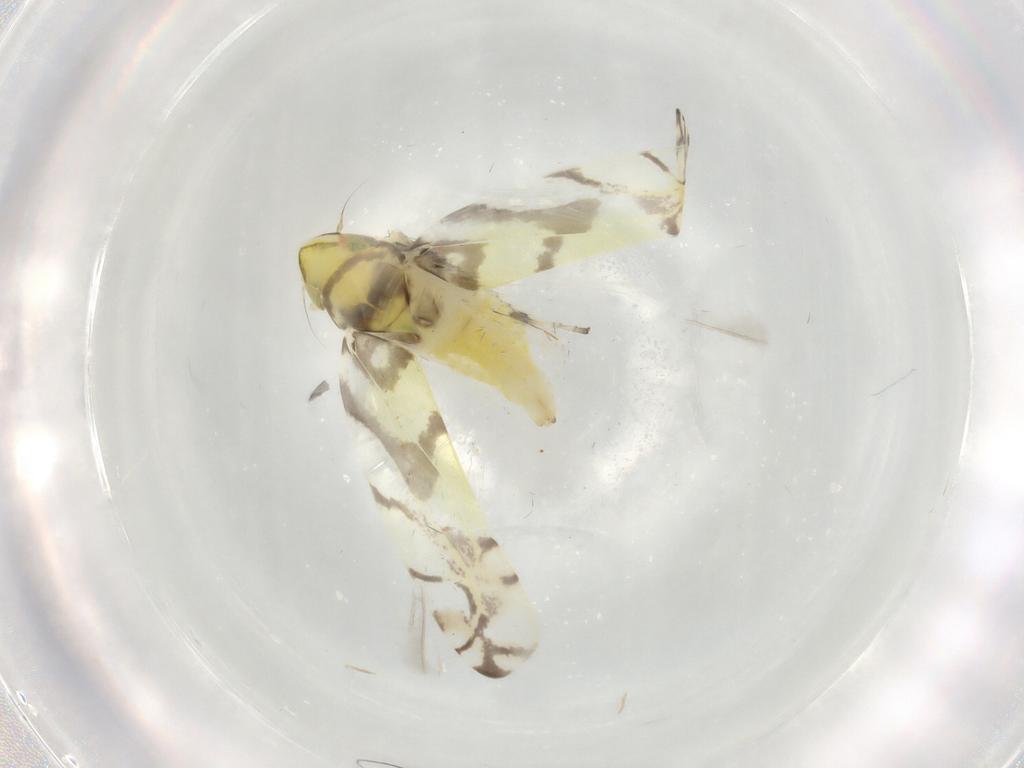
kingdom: Animalia
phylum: Arthropoda
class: Insecta
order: Hemiptera
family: Cicadellidae
